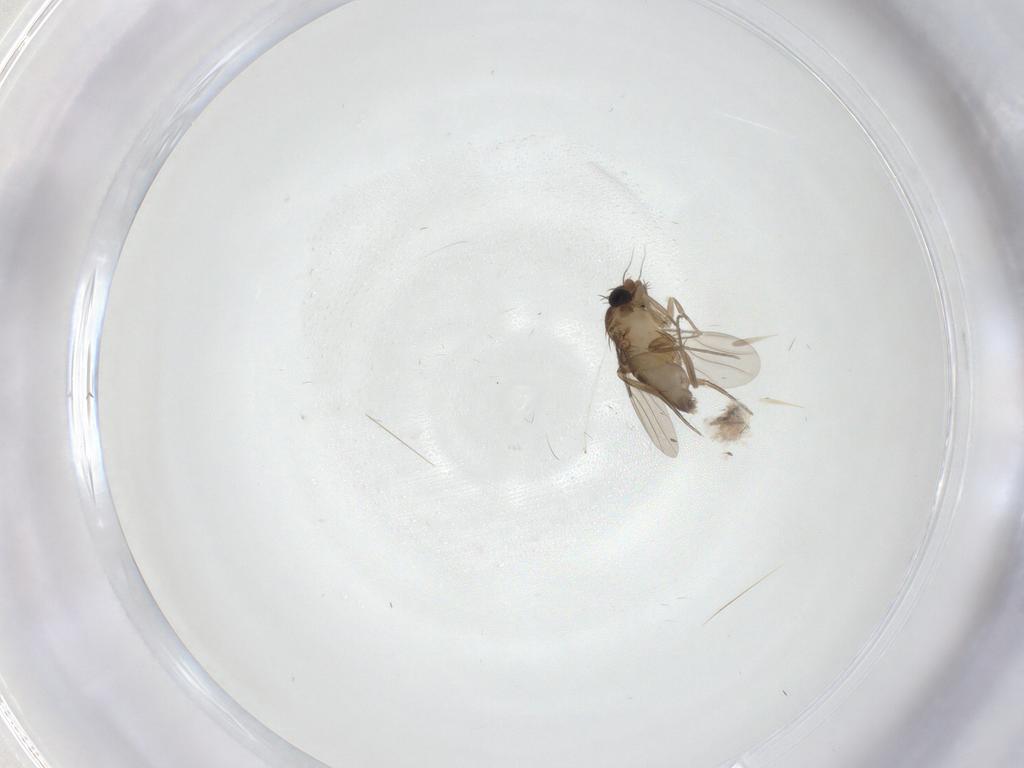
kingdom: Animalia
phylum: Arthropoda
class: Insecta
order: Diptera
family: Cecidomyiidae
